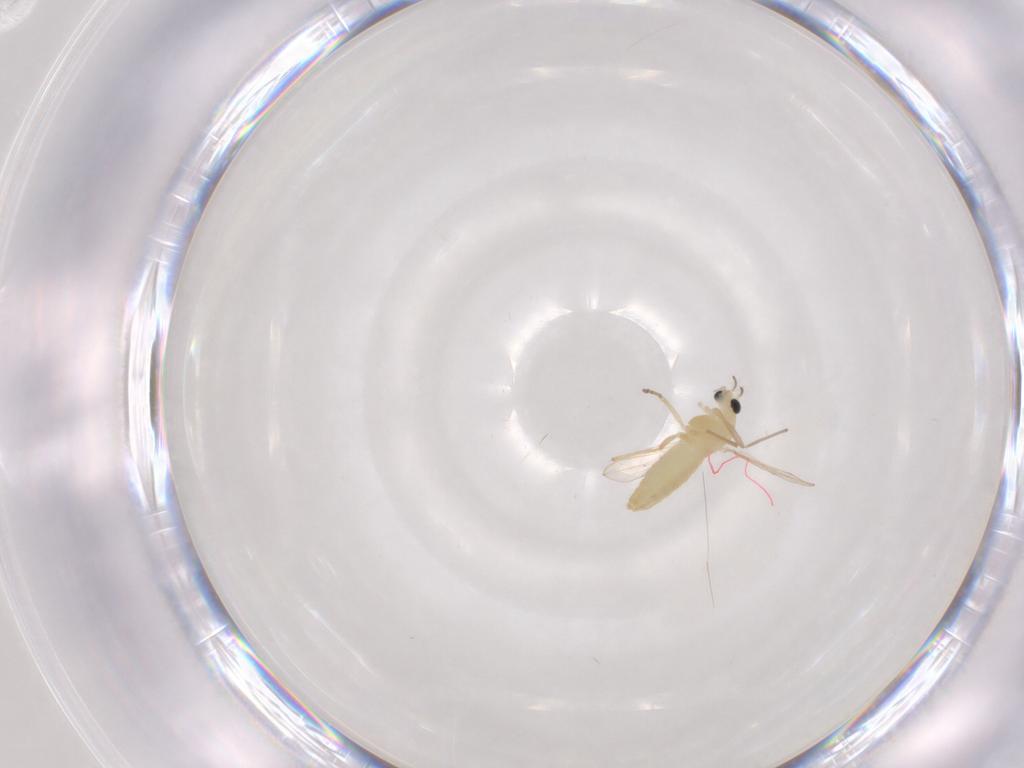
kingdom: Animalia
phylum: Arthropoda
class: Insecta
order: Diptera
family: Chironomidae
